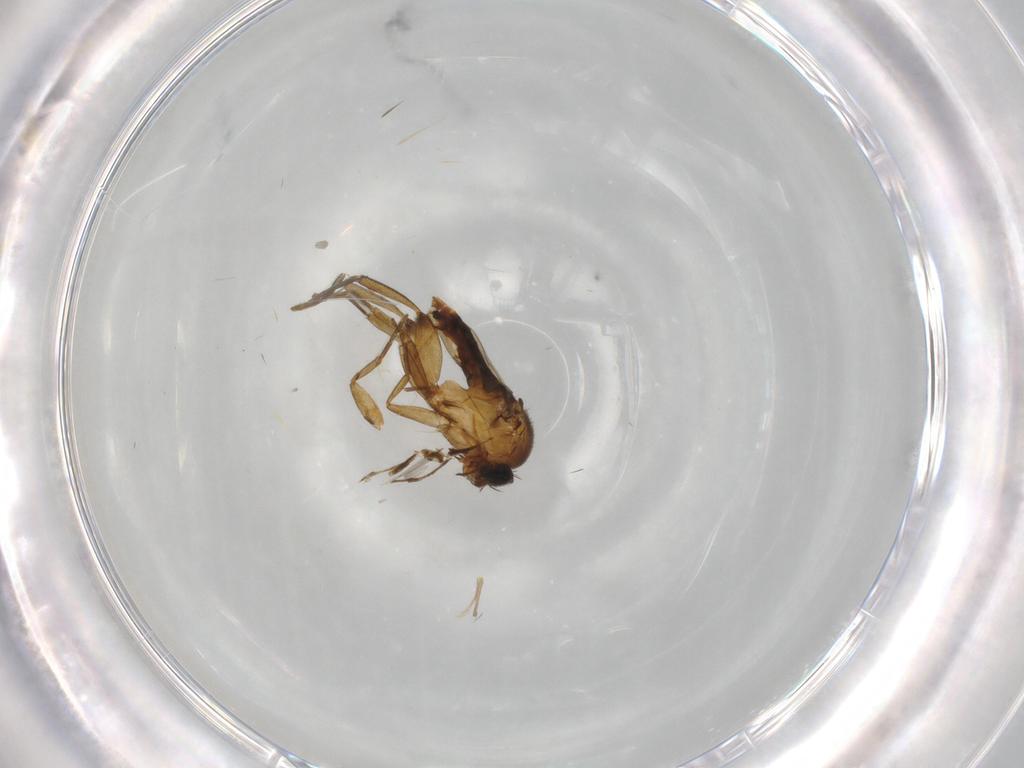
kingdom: Animalia
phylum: Arthropoda
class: Insecta
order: Diptera
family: Phoridae
